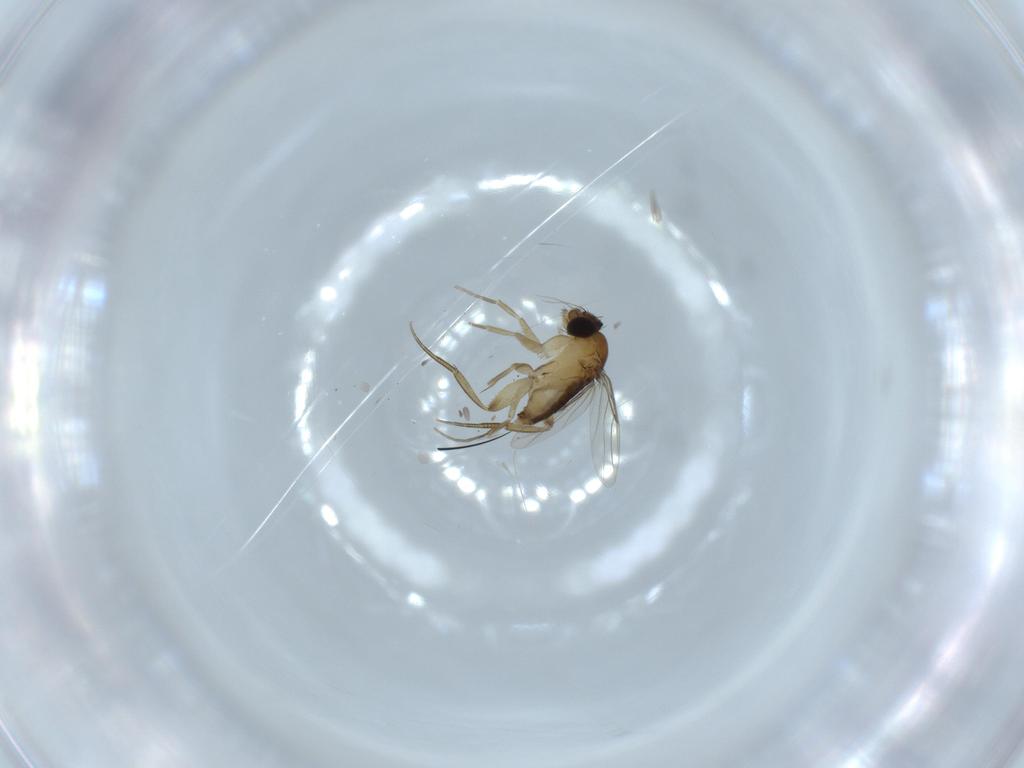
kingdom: Animalia
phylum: Arthropoda
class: Insecta
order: Diptera
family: Phoridae
